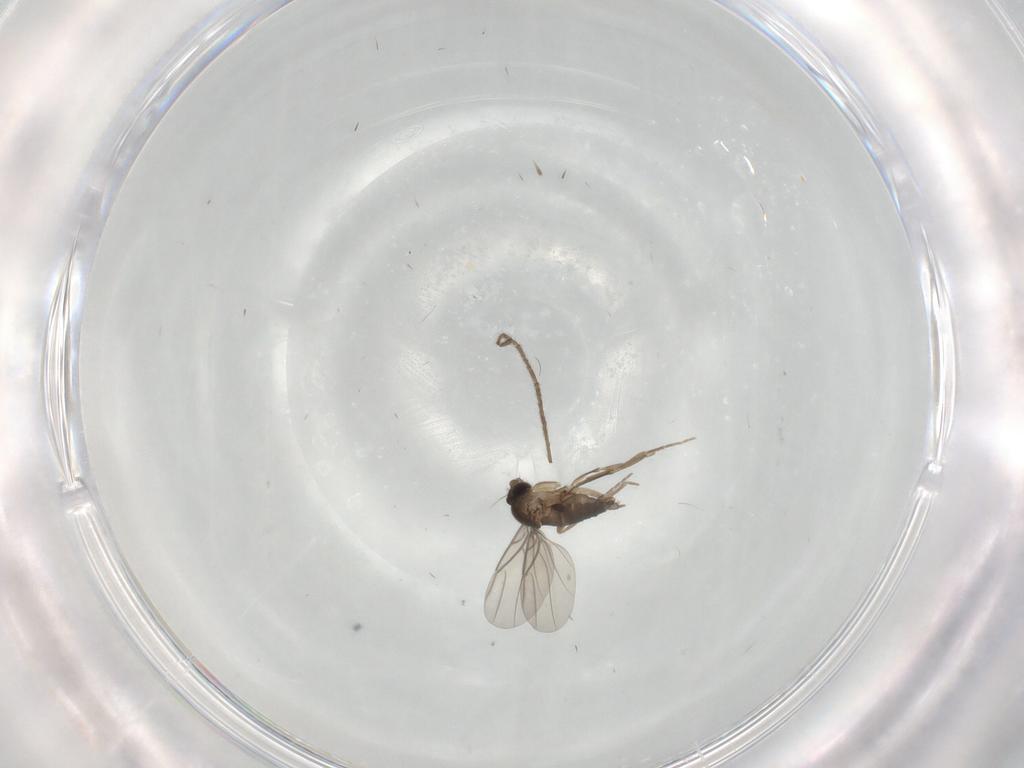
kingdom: Animalia
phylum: Arthropoda
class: Insecta
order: Diptera
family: Phoridae
